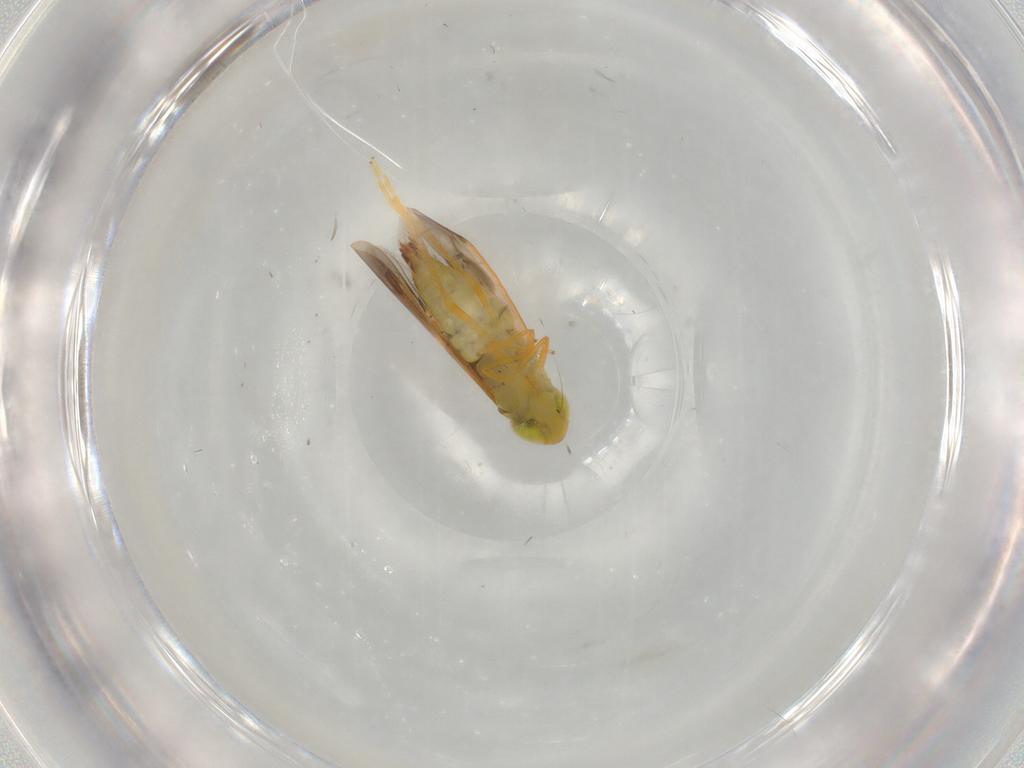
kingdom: Animalia
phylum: Arthropoda
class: Insecta
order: Hemiptera
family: Cicadellidae
